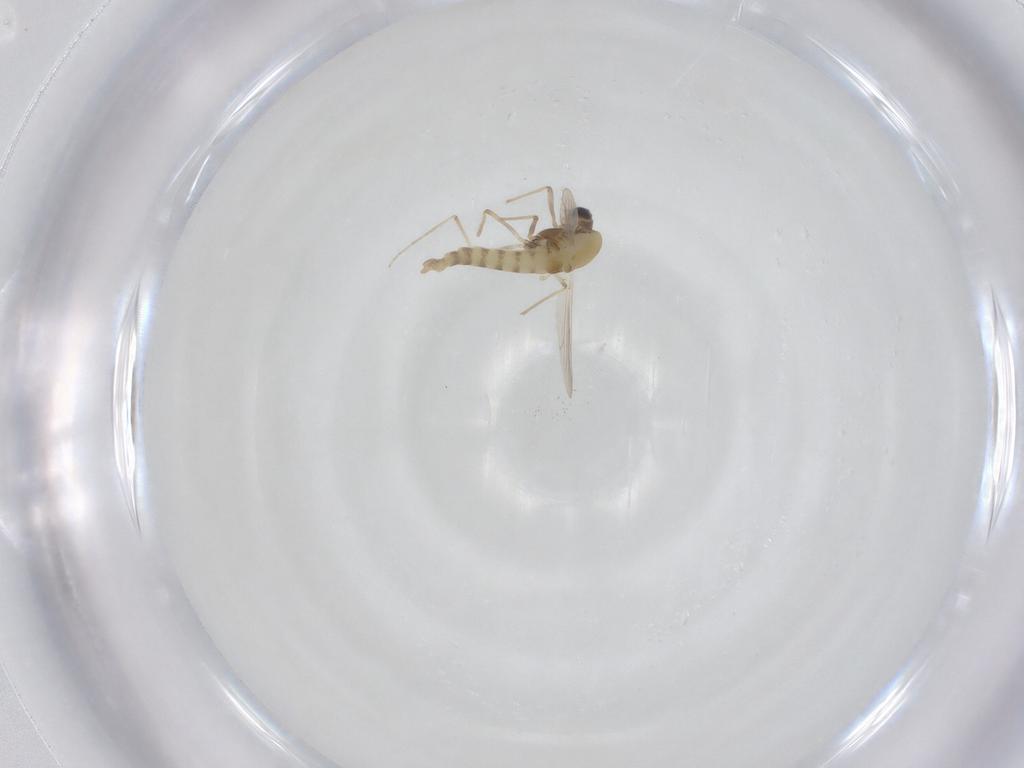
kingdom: Animalia
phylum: Arthropoda
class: Insecta
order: Diptera
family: Chironomidae
